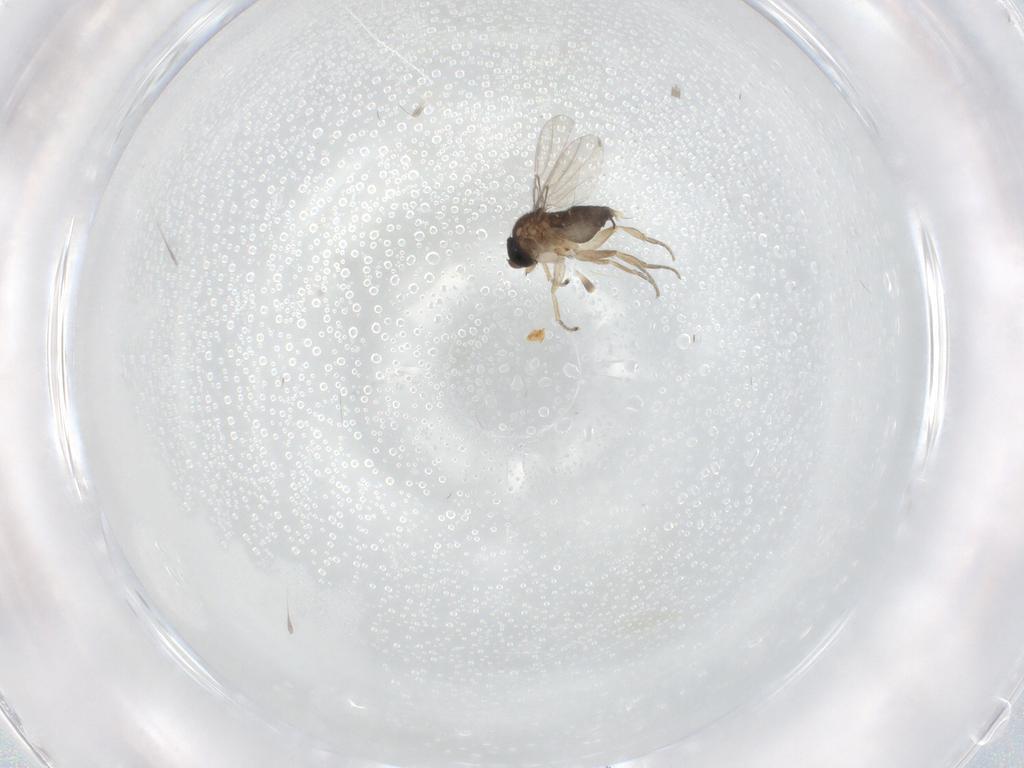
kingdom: Animalia
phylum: Arthropoda
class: Insecta
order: Diptera
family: Phoridae
